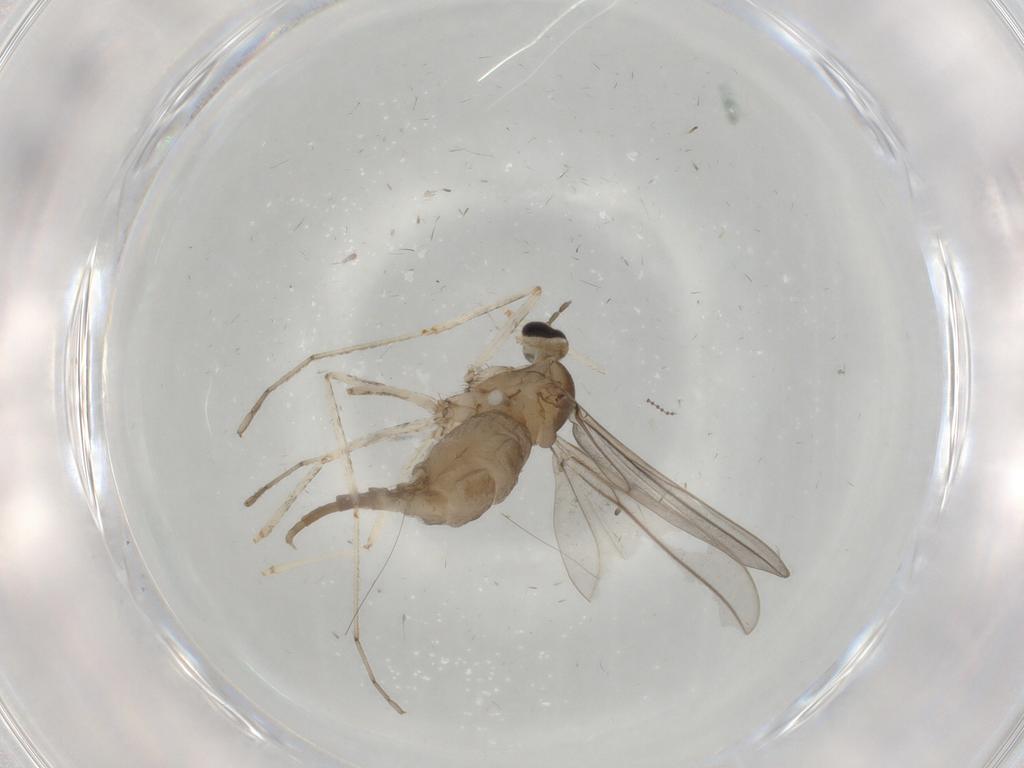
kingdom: Animalia
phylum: Arthropoda
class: Insecta
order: Diptera
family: Cecidomyiidae
